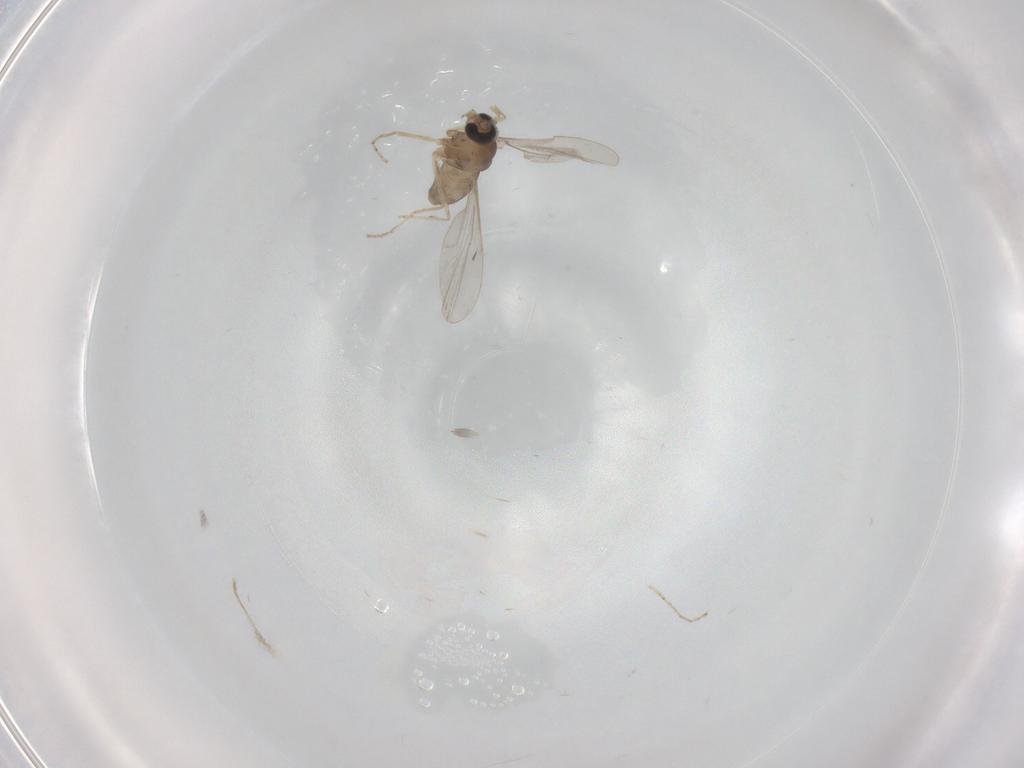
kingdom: Animalia
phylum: Arthropoda
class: Insecta
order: Diptera
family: Cecidomyiidae
